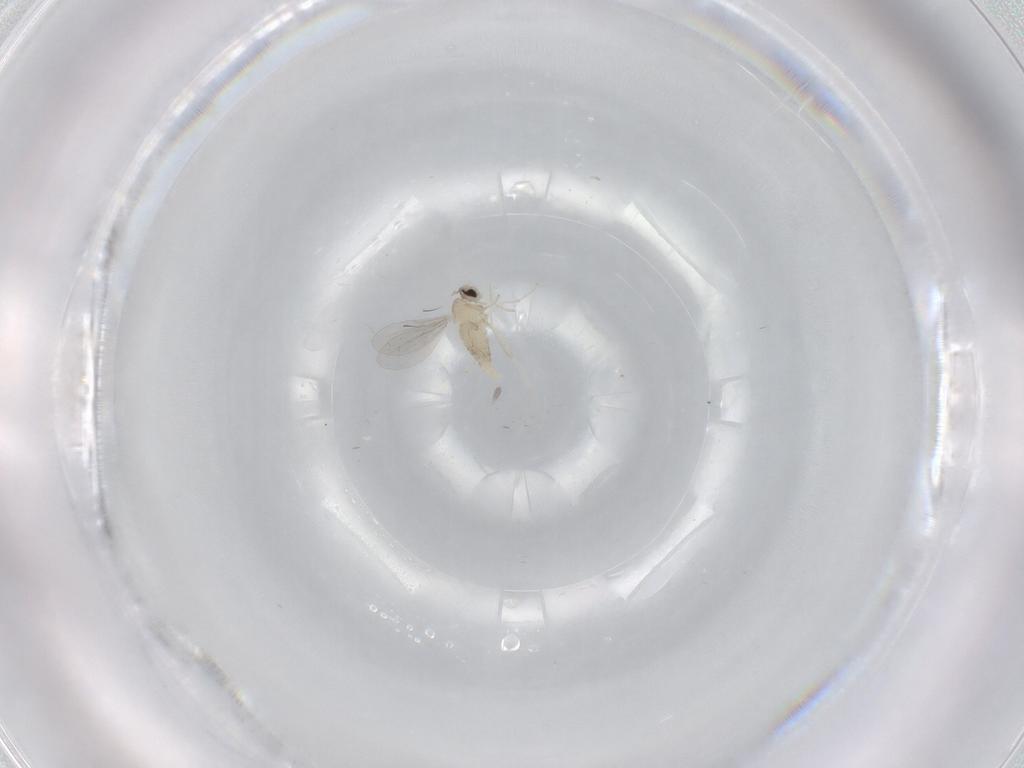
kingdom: Animalia
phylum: Arthropoda
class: Insecta
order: Diptera
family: Cecidomyiidae
